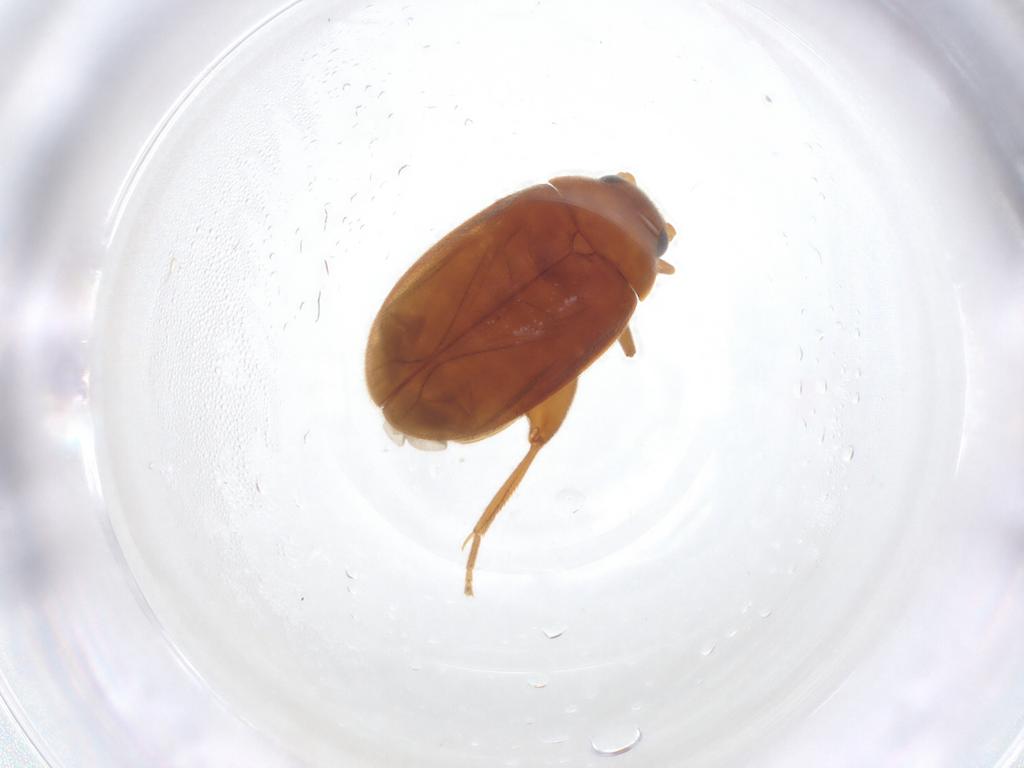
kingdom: Animalia
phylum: Arthropoda
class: Insecta
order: Coleoptera
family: Scirtidae
